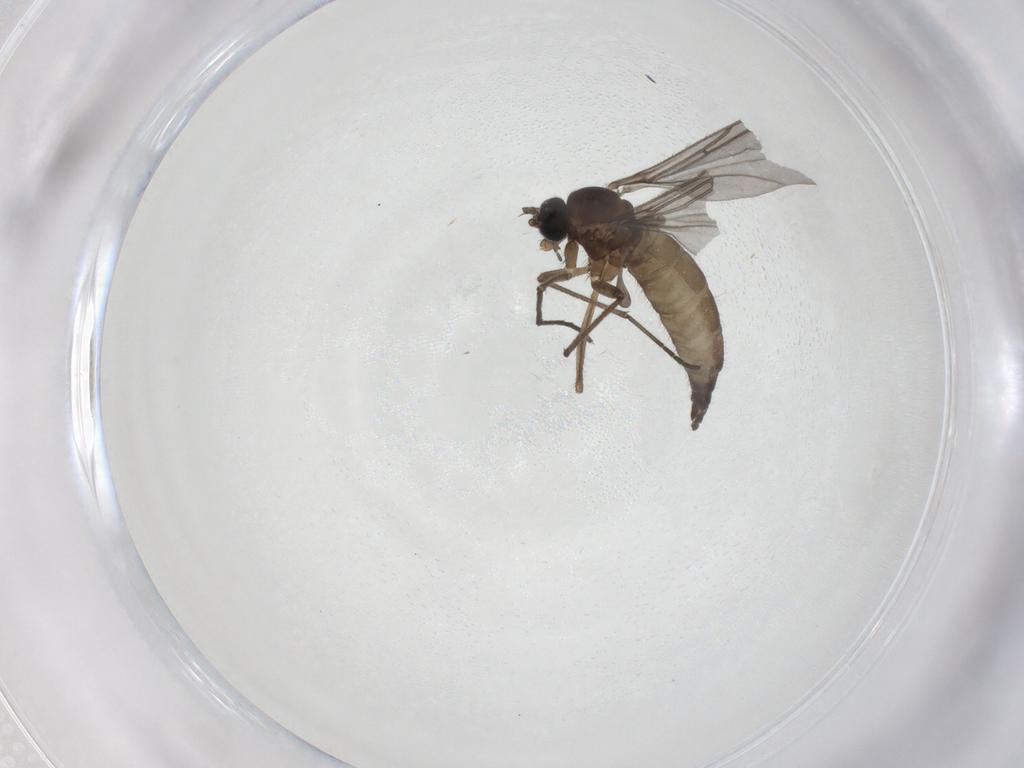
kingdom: Animalia
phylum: Arthropoda
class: Insecta
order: Diptera
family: Sciaridae
